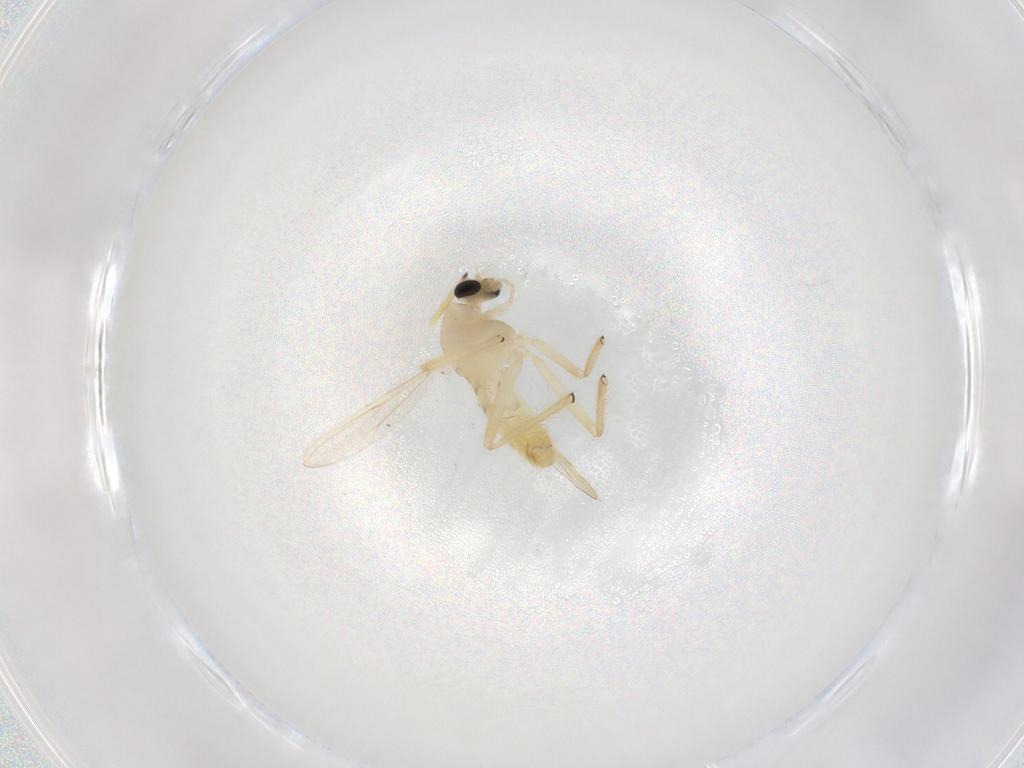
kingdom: Animalia
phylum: Arthropoda
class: Insecta
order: Diptera
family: Chironomidae
